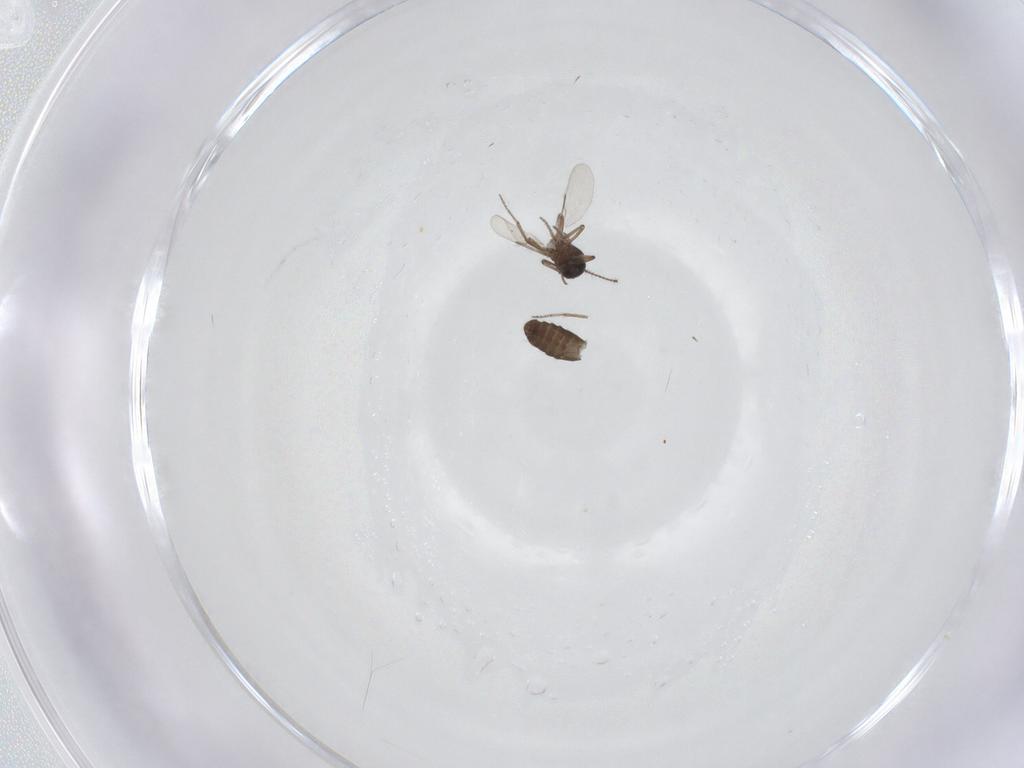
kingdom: Animalia
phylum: Arthropoda
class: Insecta
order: Diptera
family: Ceratopogonidae
